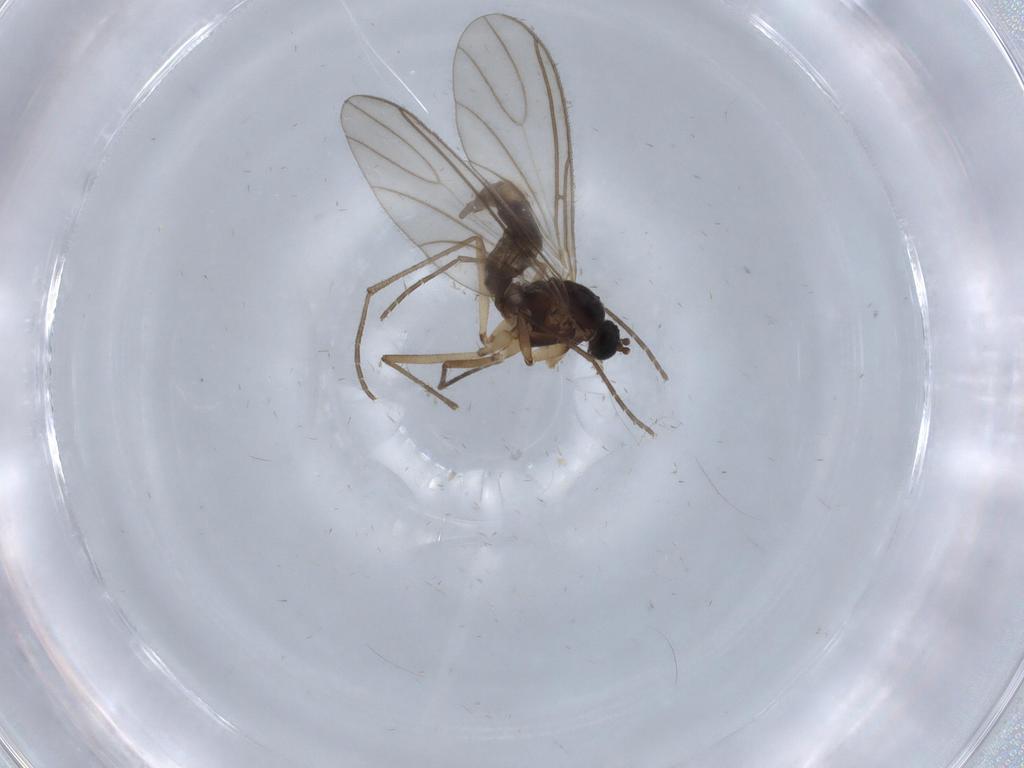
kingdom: Animalia
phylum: Arthropoda
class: Insecta
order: Diptera
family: Sciaridae
